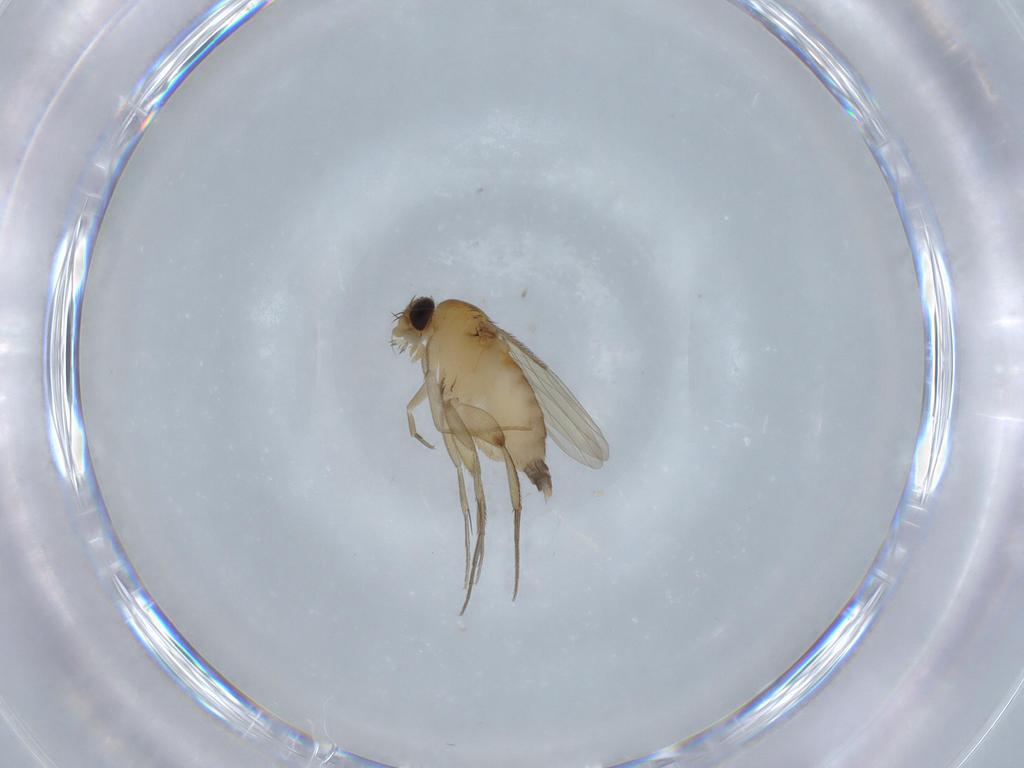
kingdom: Animalia
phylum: Arthropoda
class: Insecta
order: Diptera
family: Phoridae
